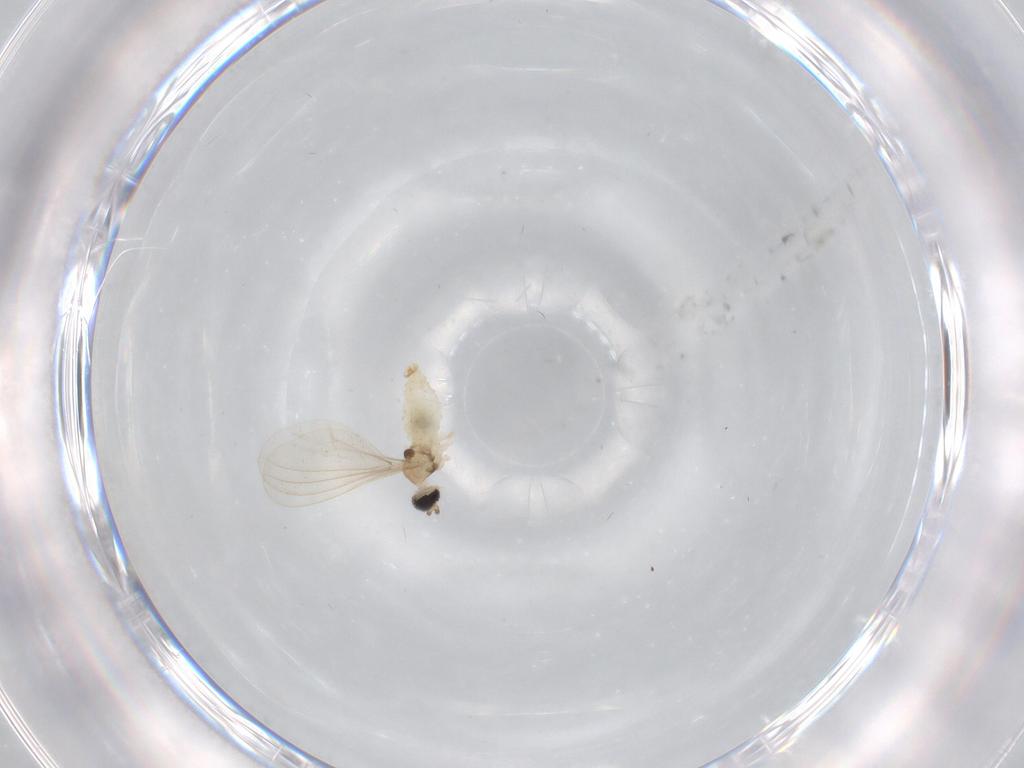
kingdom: Animalia
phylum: Arthropoda
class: Insecta
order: Diptera
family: Cecidomyiidae
